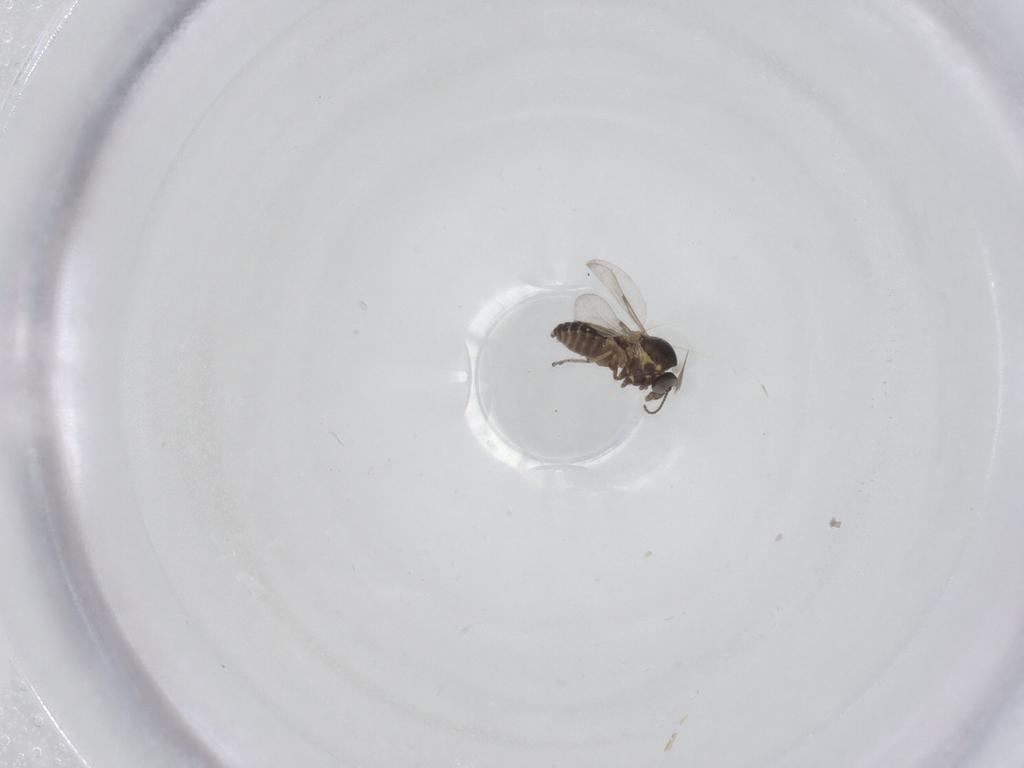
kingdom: Animalia
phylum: Arthropoda
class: Insecta
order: Diptera
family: Ceratopogonidae
